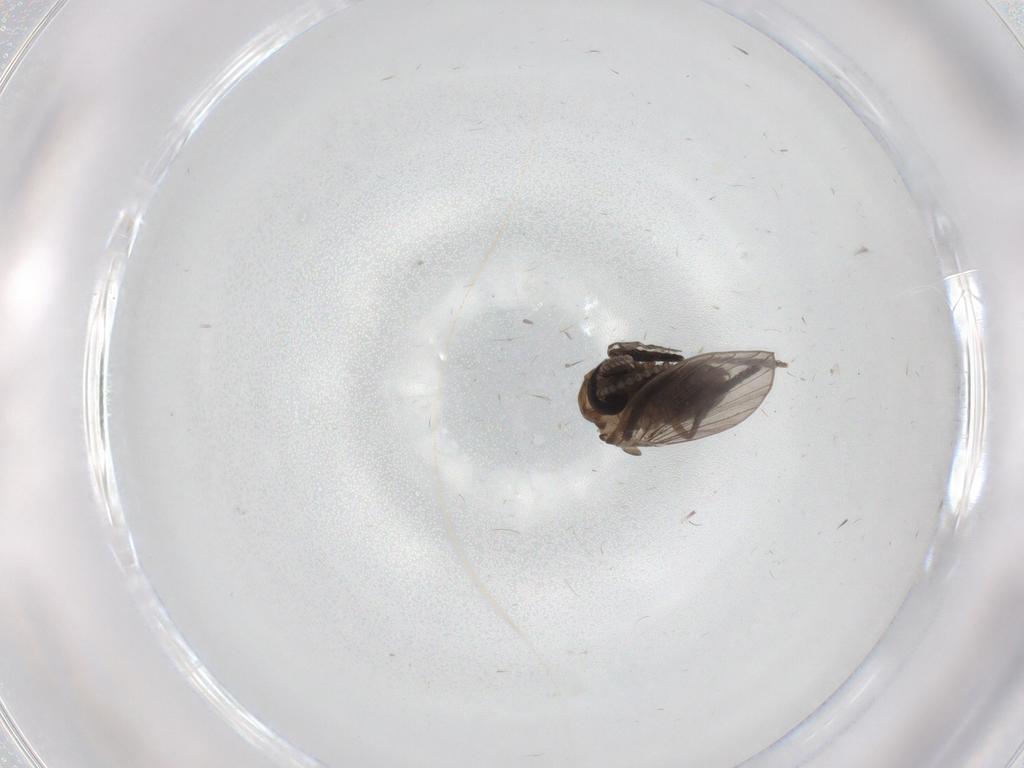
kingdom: Animalia
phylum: Arthropoda
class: Insecta
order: Diptera
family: Psychodidae
